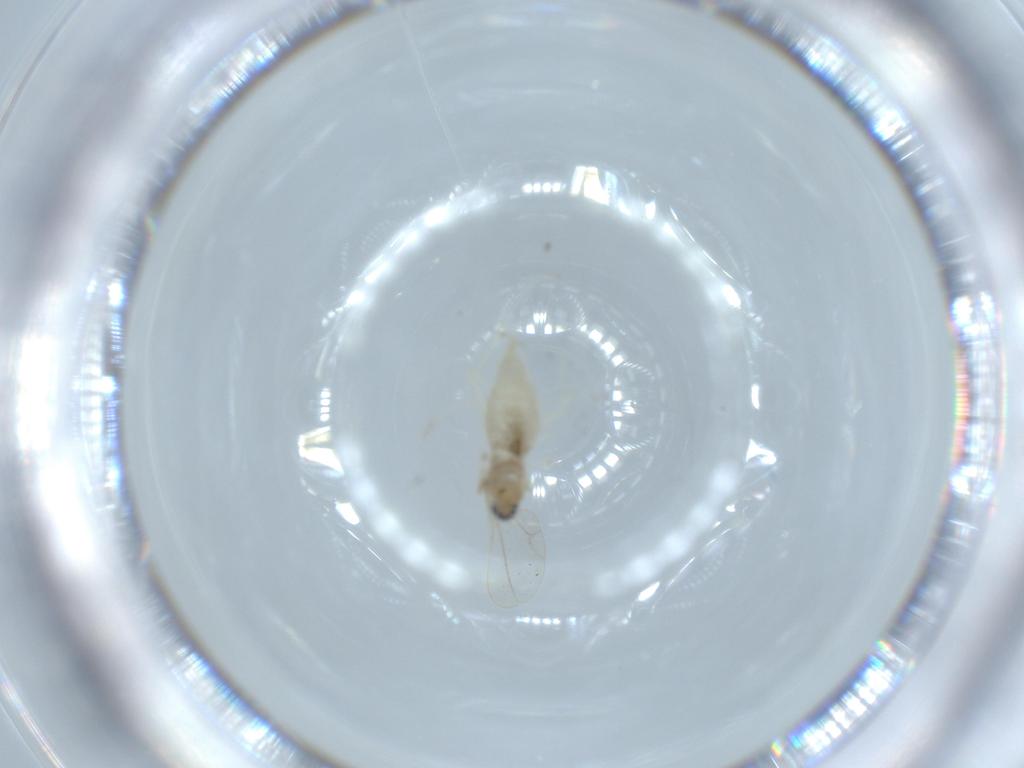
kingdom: Animalia
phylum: Arthropoda
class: Insecta
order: Diptera
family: Cecidomyiidae
